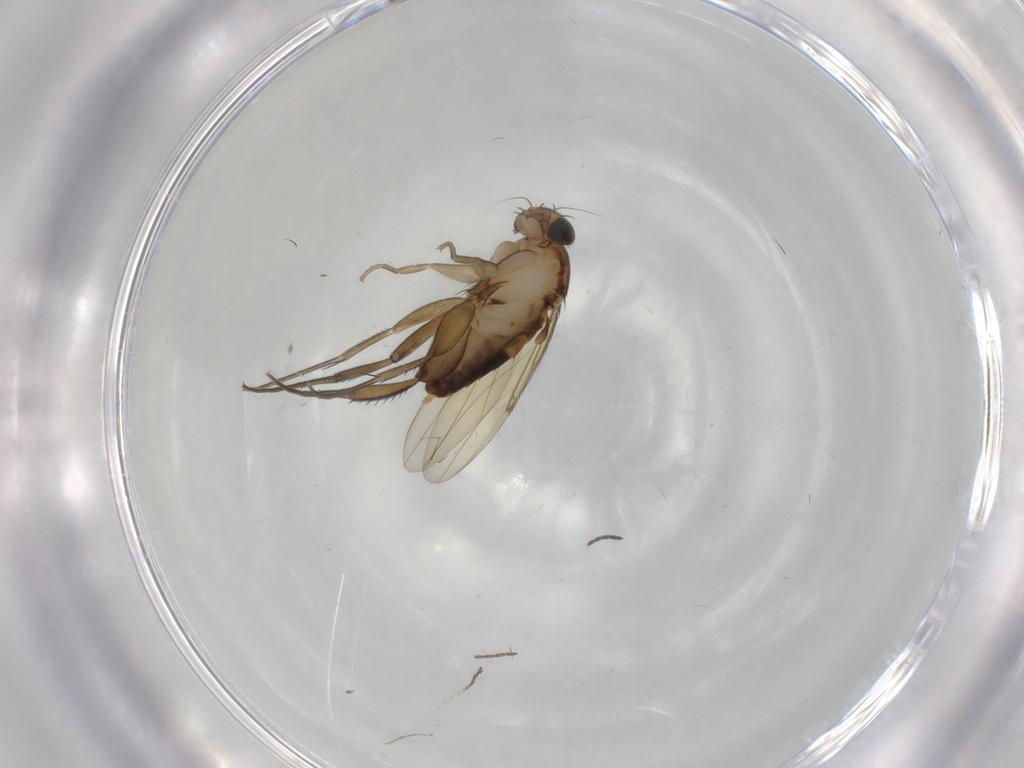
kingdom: Animalia
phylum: Arthropoda
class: Insecta
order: Diptera
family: Phoridae
